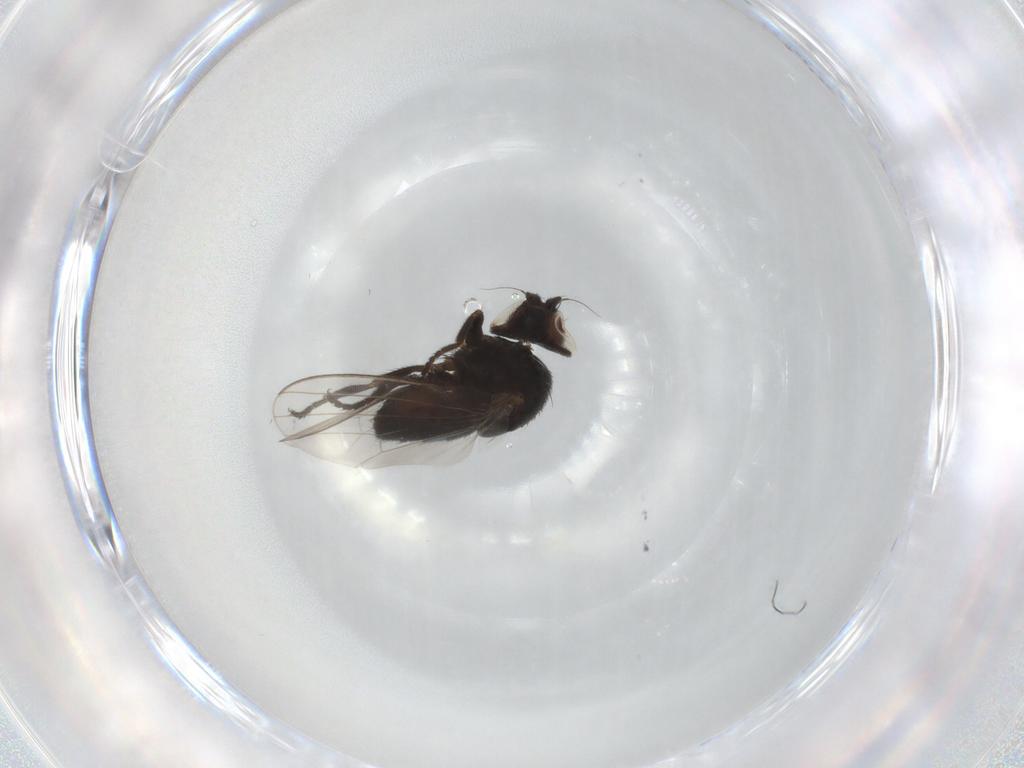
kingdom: Animalia
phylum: Arthropoda
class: Insecta
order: Diptera
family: Chloropidae
